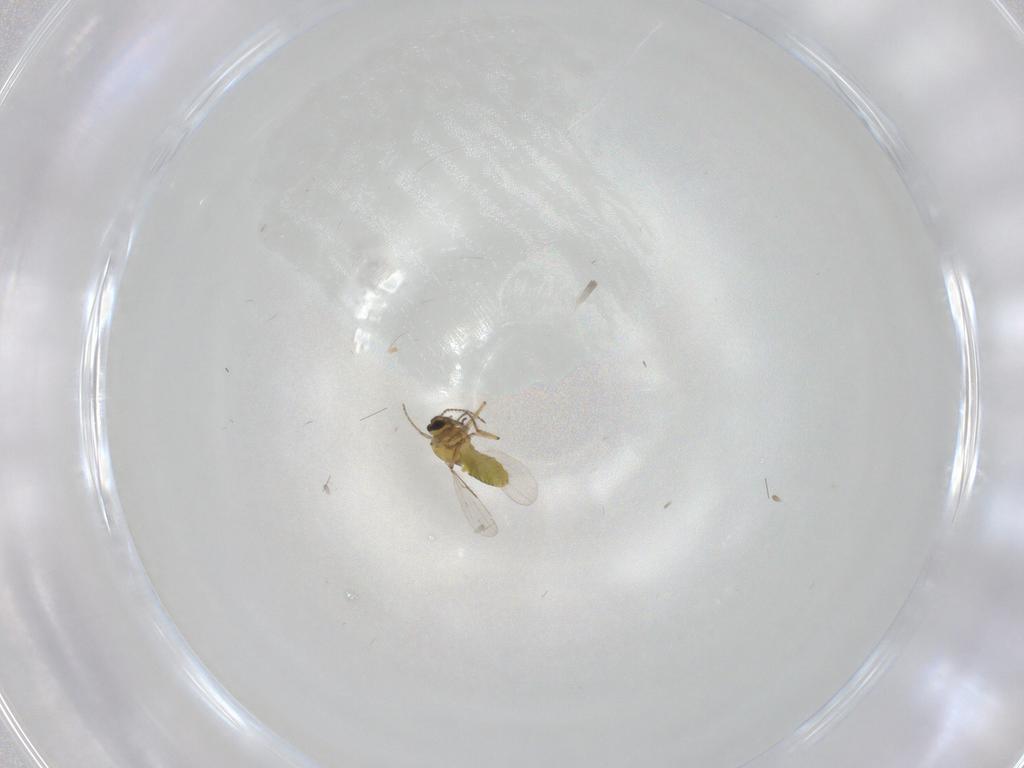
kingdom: Animalia
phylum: Arthropoda
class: Insecta
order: Diptera
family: Ceratopogonidae
